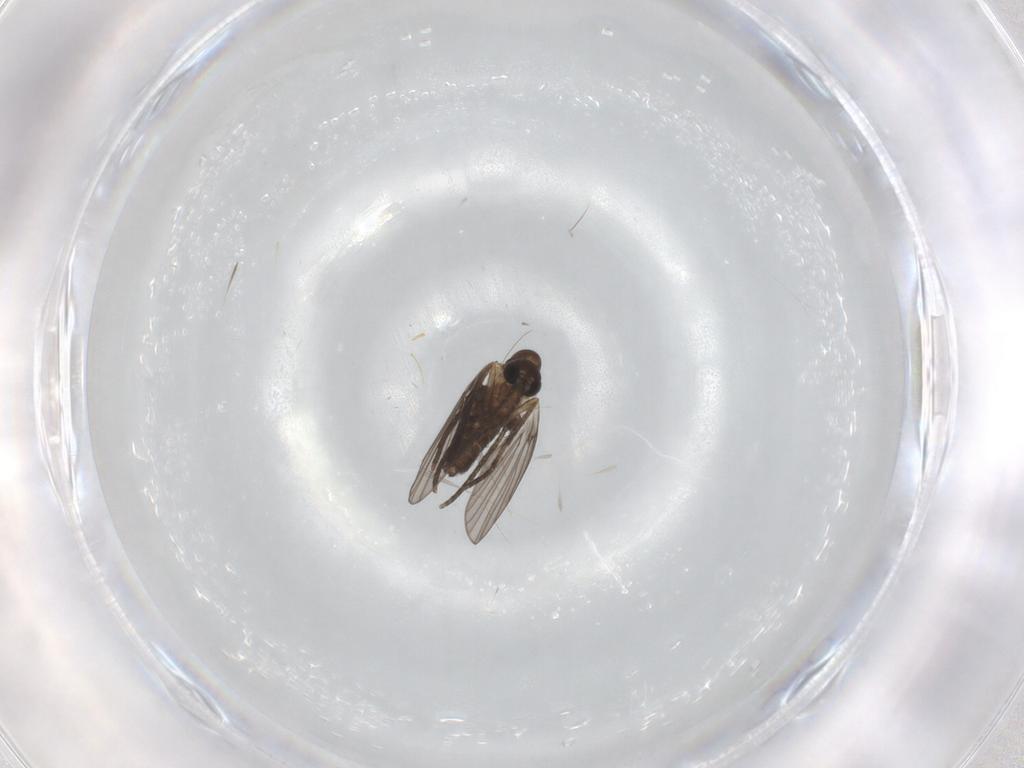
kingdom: Animalia
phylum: Arthropoda
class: Insecta
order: Diptera
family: Psychodidae
